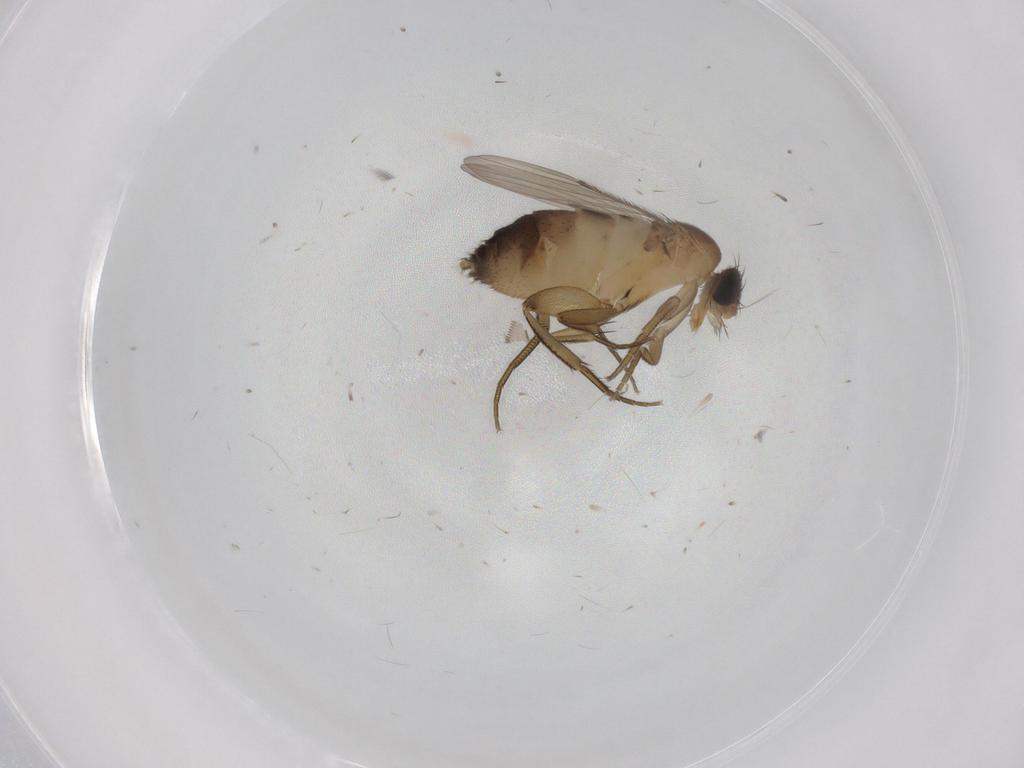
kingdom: Animalia
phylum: Arthropoda
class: Insecta
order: Diptera
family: Phoridae
